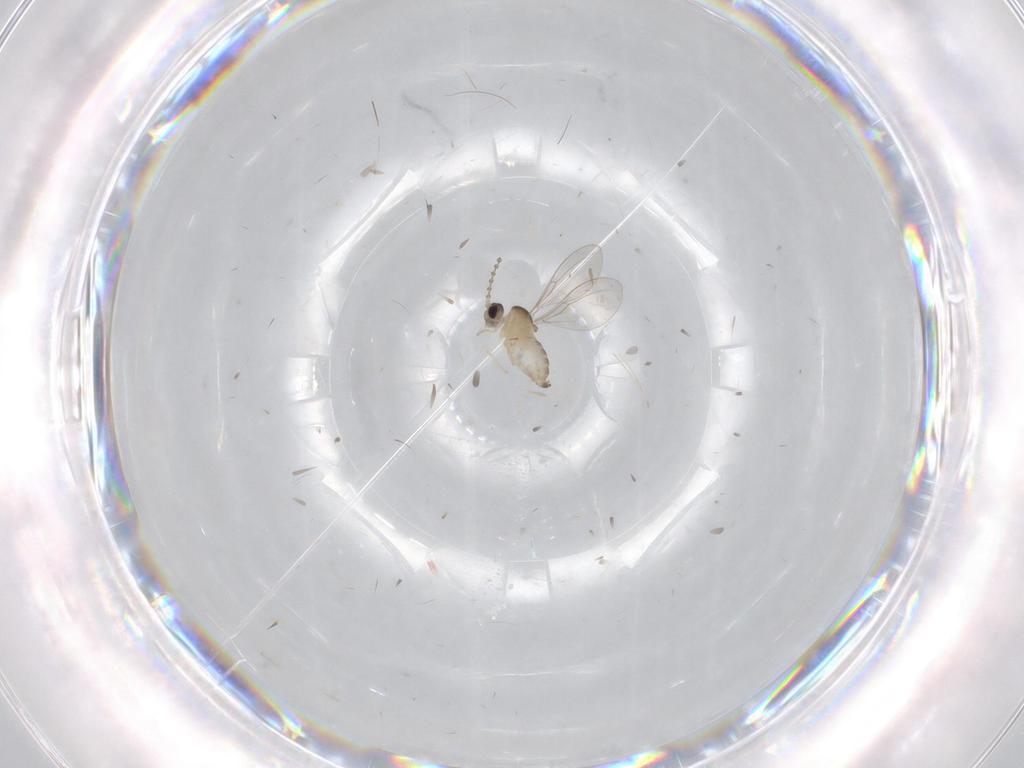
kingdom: Animalia
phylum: Arthropoda
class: Insecta
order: Diptera
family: Cecidomyiidae
